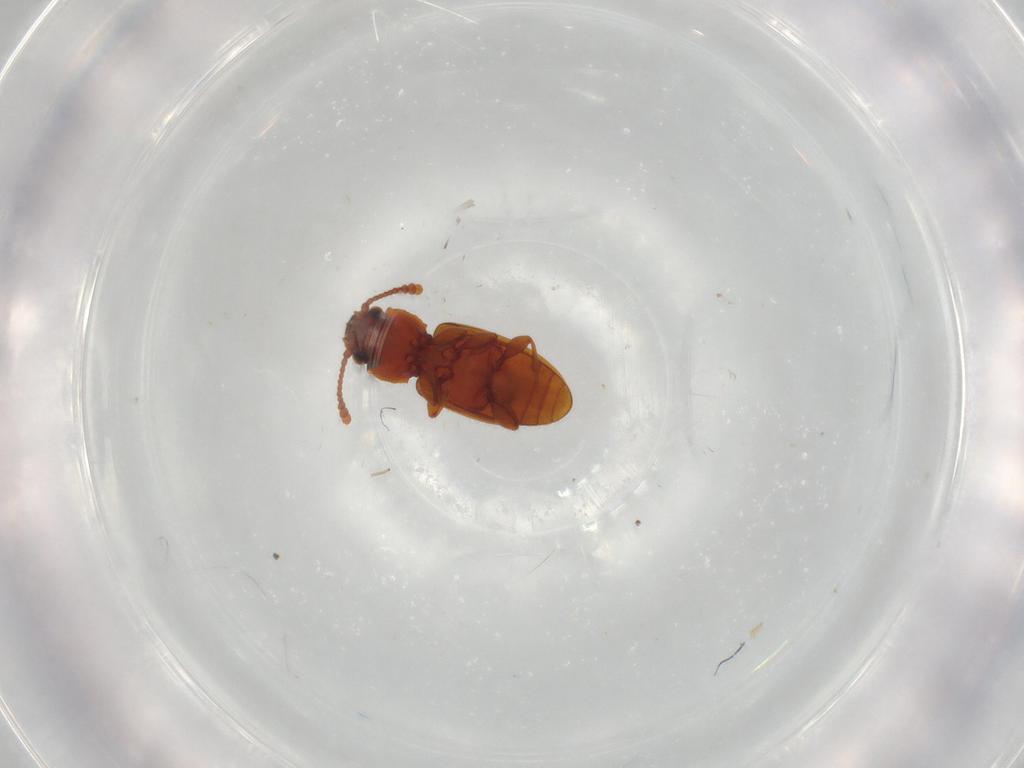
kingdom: Animalia
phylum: Arthropoda
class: Insecta
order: Coleoptera
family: Silvanidae
